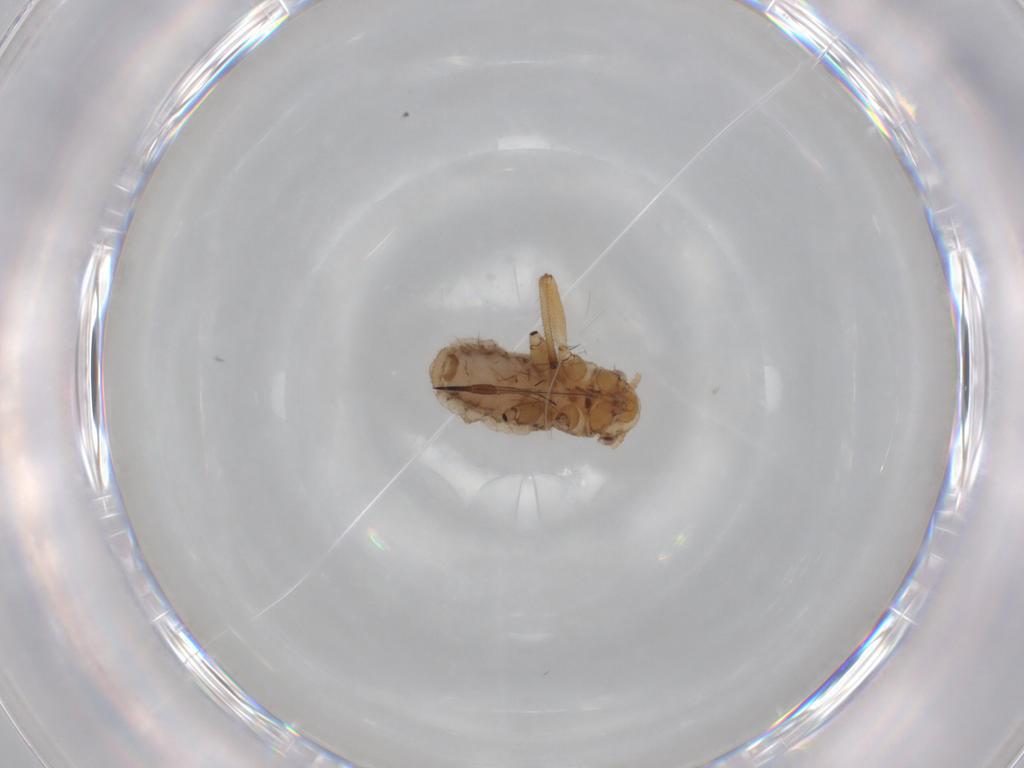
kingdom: Animalia
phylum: Arthropoda
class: Insecta
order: Hemiptera
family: Aphididae
